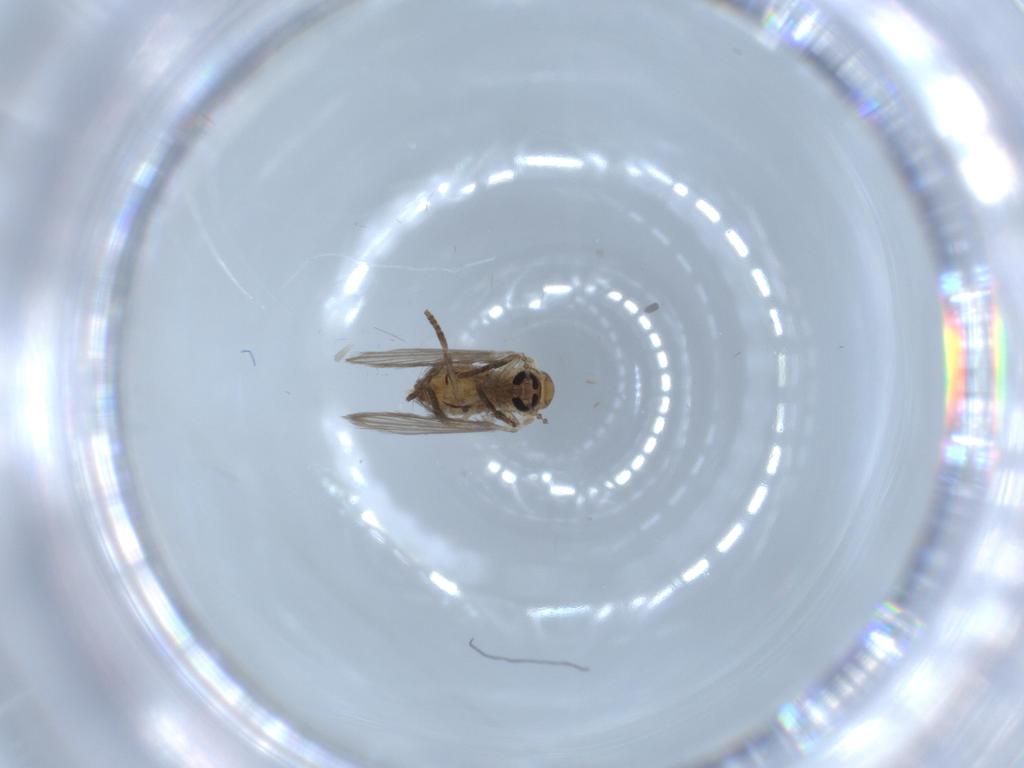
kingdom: Animalia
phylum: Arthropoda
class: Insecta
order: Diptera
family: Psychodidae
